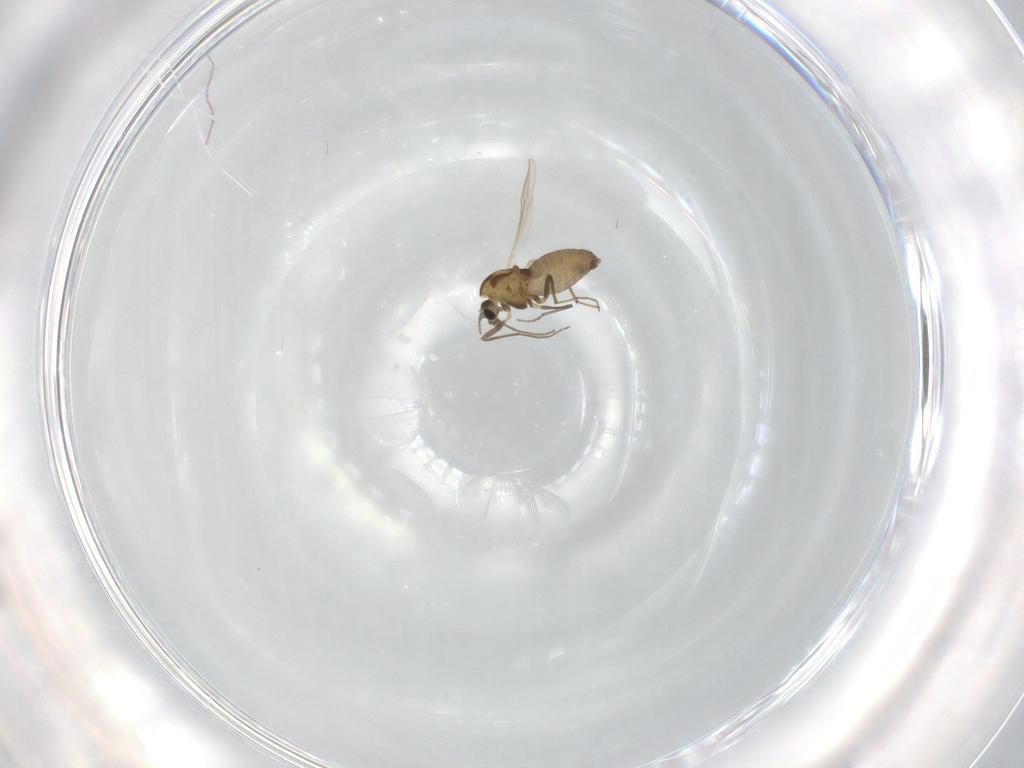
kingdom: Animalia
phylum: Arthropoda
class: Insecta
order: Diptera
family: Chironomidae
